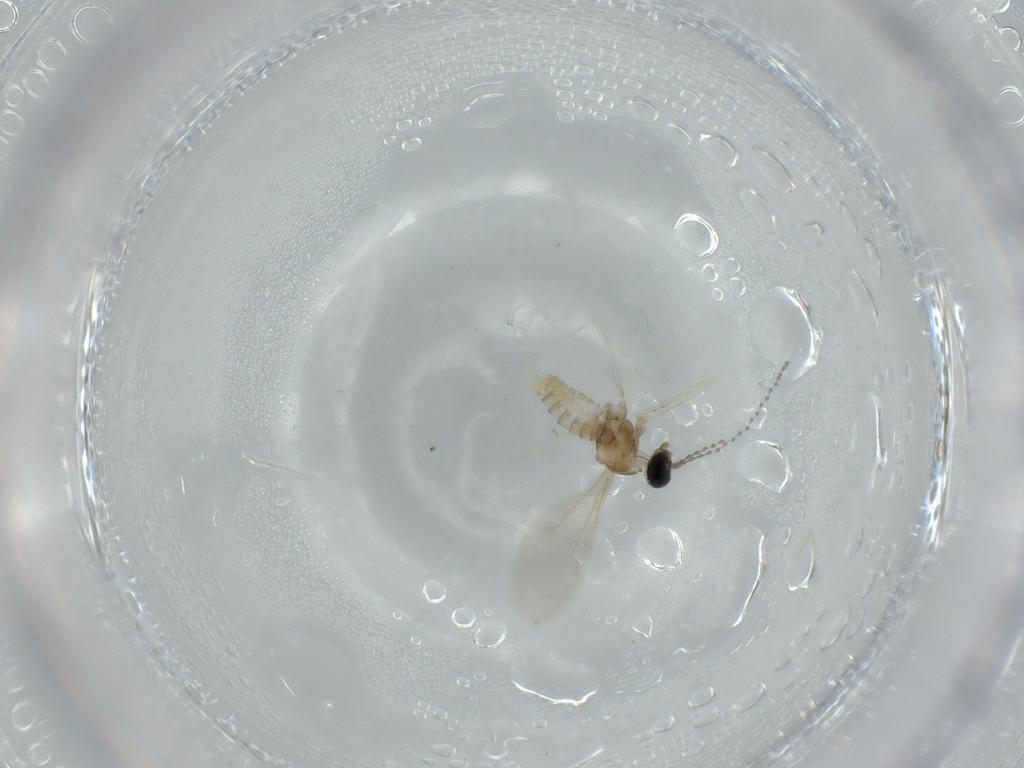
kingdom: Animalia
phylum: Arthropoda
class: Insecta
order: Diptera
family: Cecidomyiidae
